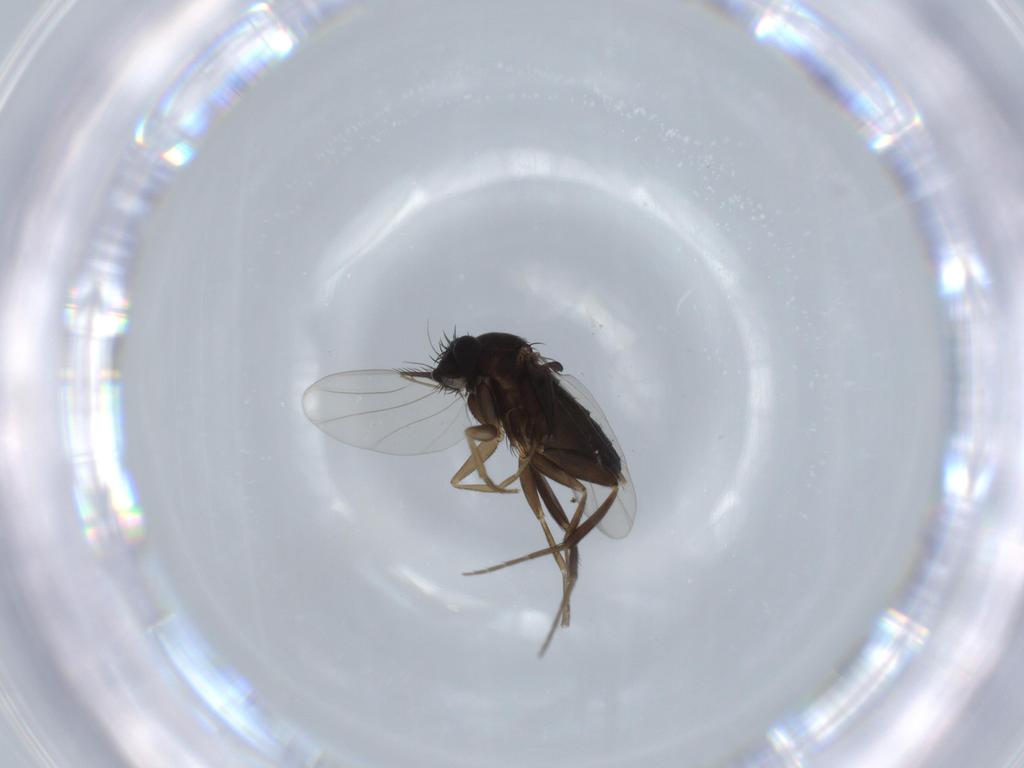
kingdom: Animalia
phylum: Arthropoda
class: Insecta
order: Diptera
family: Phoridae
